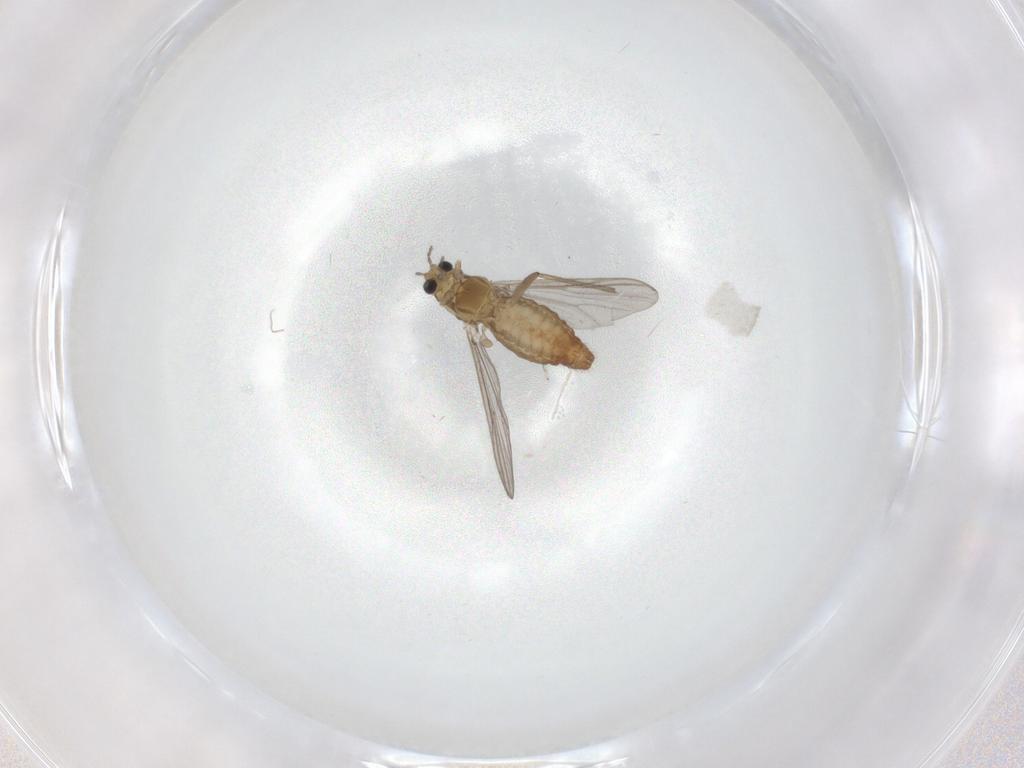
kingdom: Animalia
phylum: Arthropoda
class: Insecta
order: Diptera
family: Chironomidae
